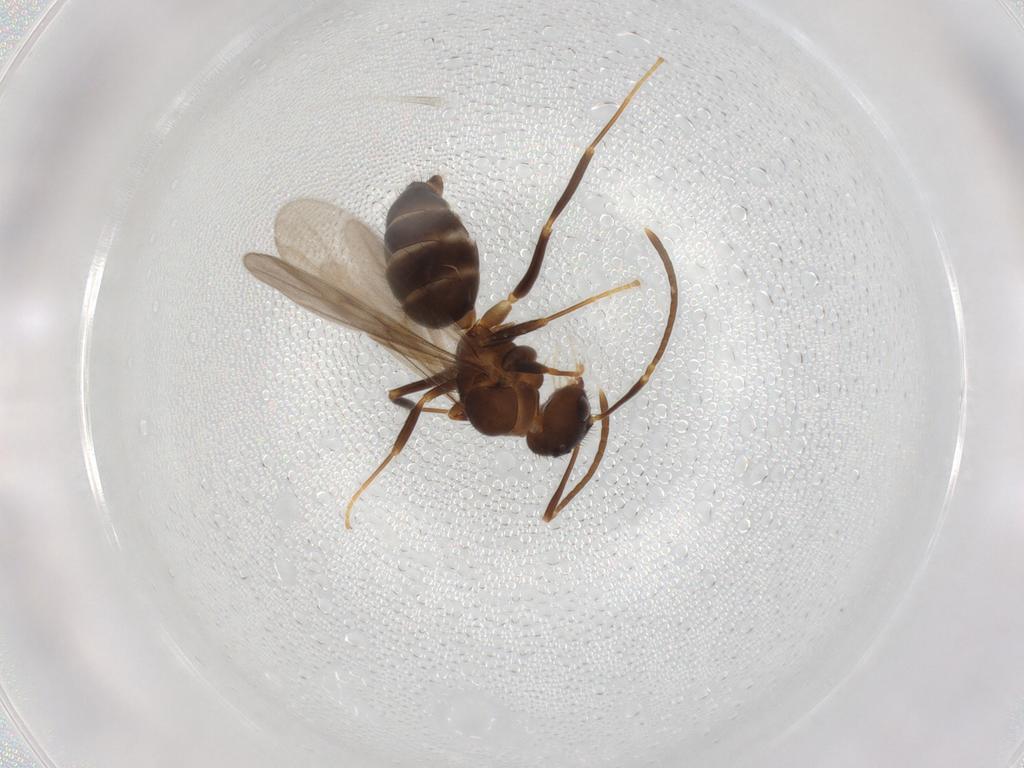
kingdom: Animalia
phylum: Arthropoda
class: Insecta
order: Hymenoptera
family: Formicidae
